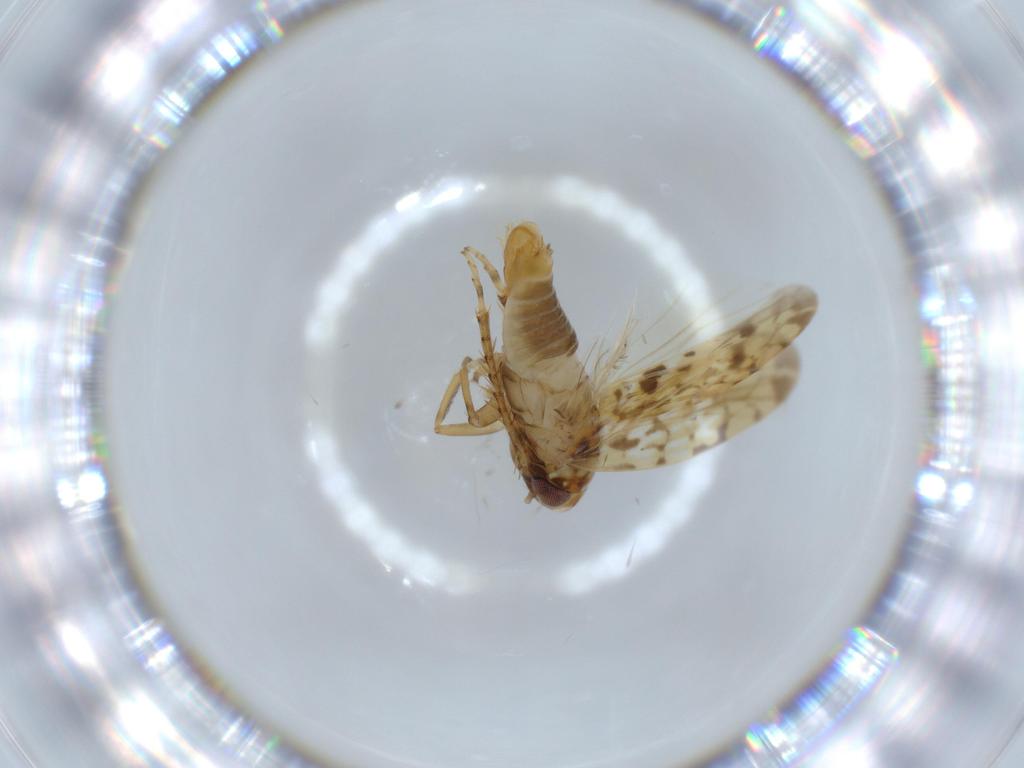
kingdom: Animalia
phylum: Arthropoda
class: Insecta
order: Hemiptera
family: Cicadellidae
